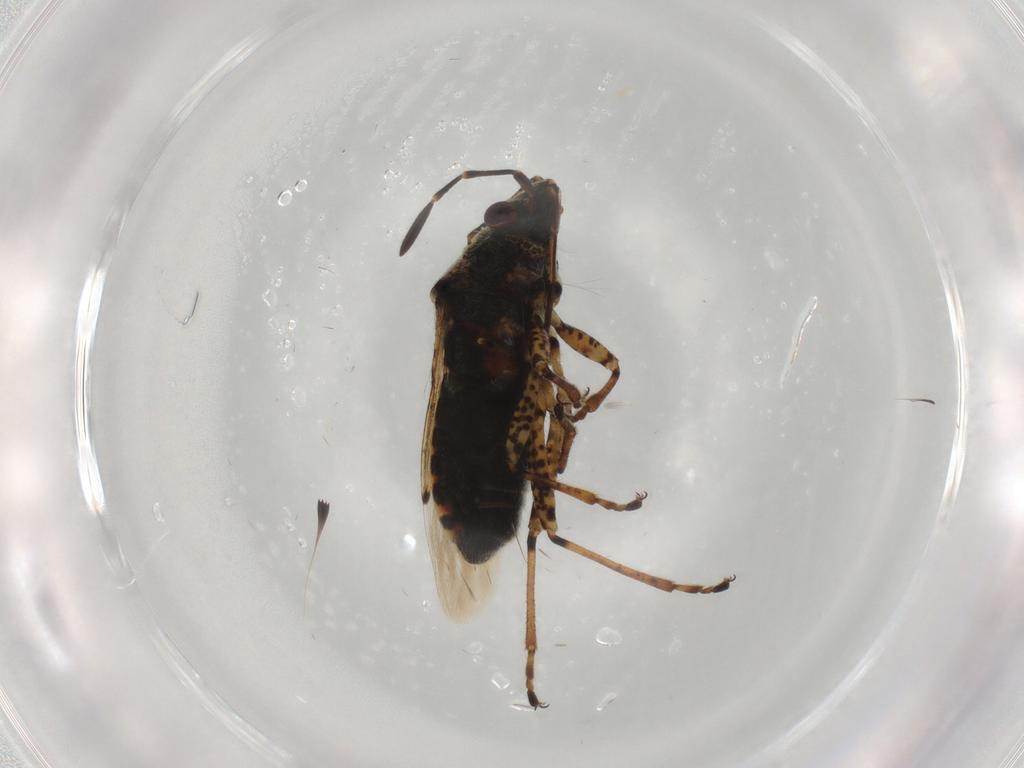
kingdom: Animalia
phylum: Arthropoda
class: Insecta
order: Hemiptera
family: Lygaeidae
